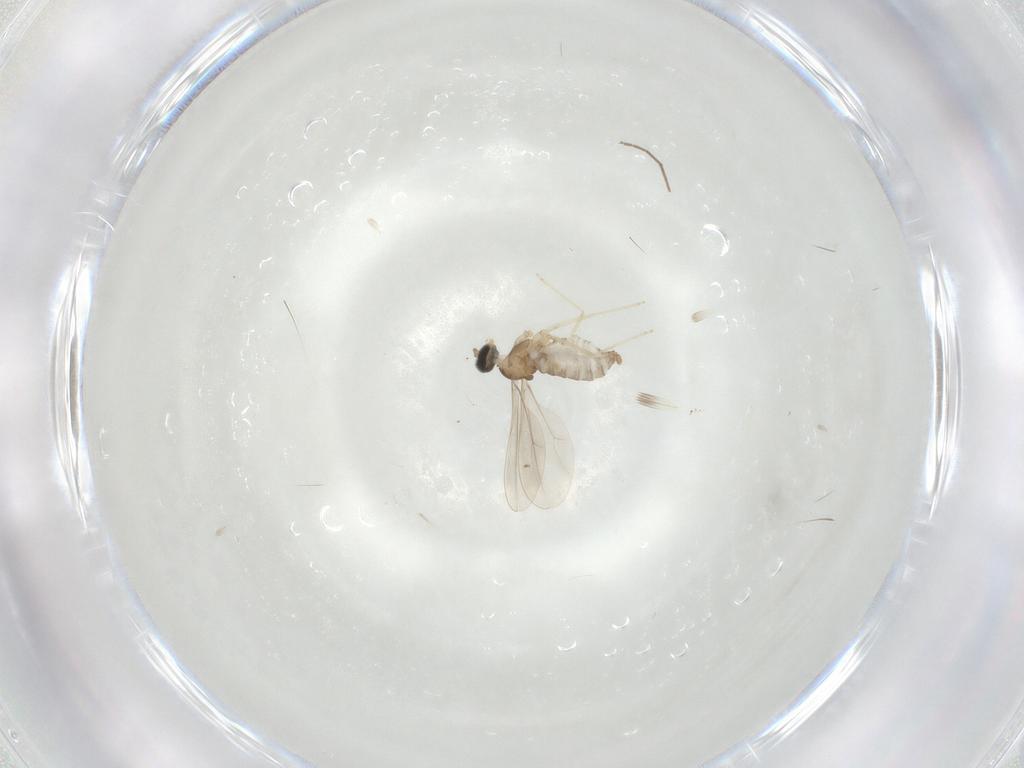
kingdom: Animalia
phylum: Arthropoda
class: Insecta
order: Diptera
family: Cecidomyiidae
